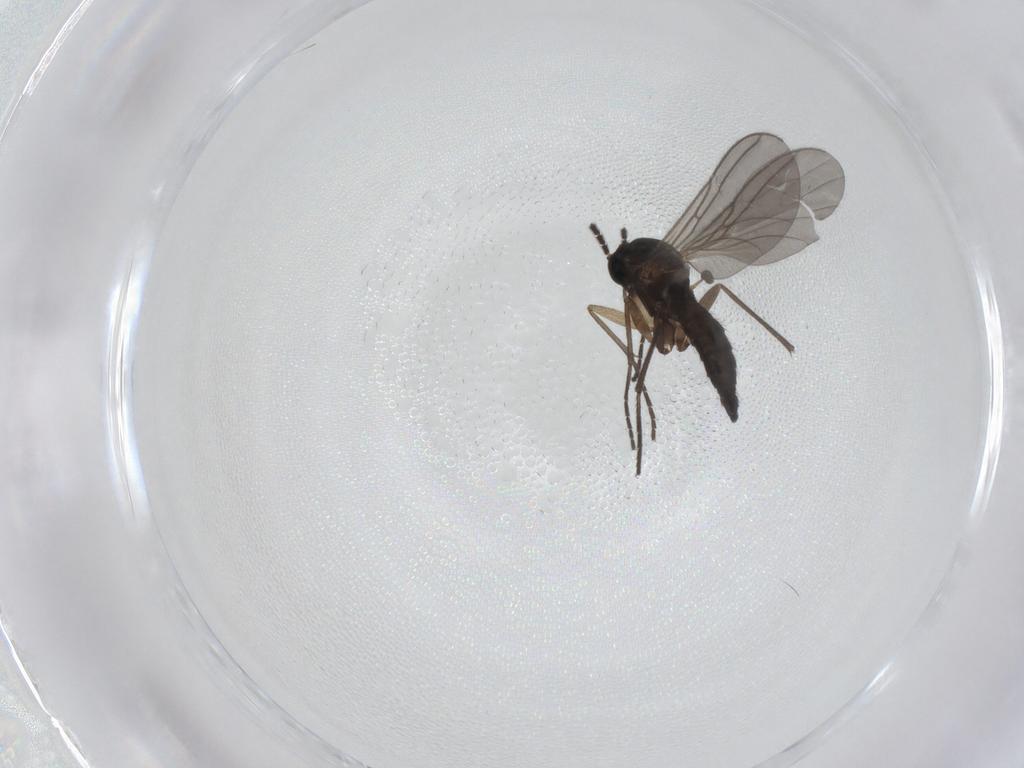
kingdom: Animalia
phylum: Arthropoda
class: Insecta
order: Diptera
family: Sciaridae
